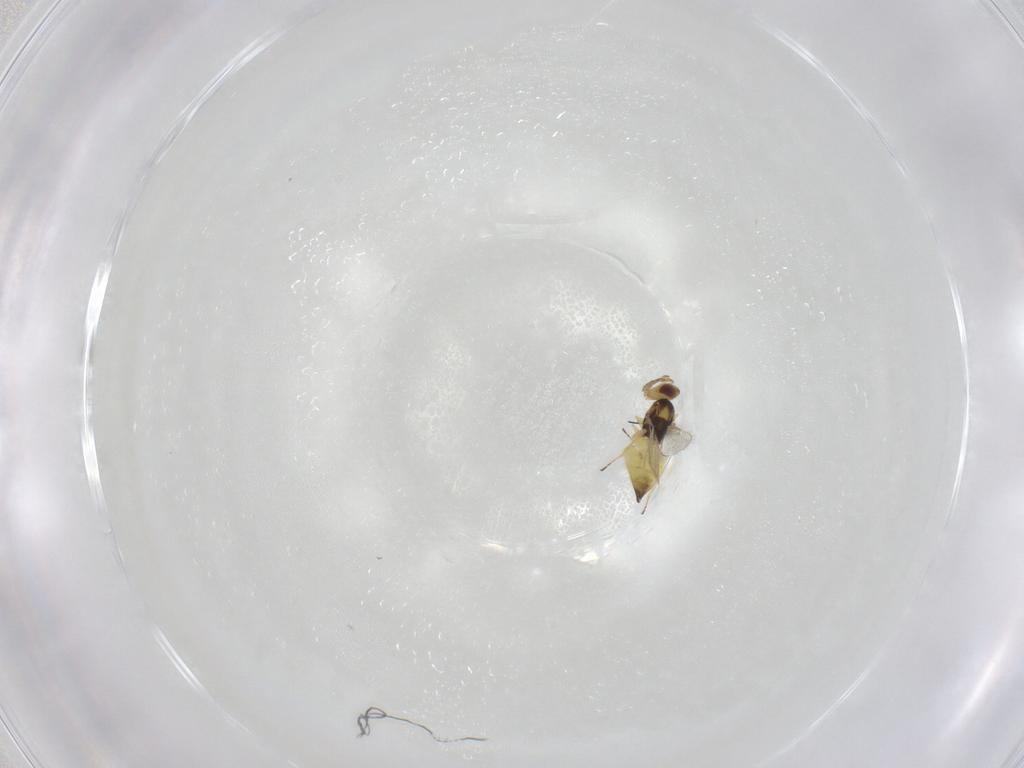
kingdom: Animalia
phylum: Arthropoda
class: Insecta
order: Hymenoptera
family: Eulophidae
